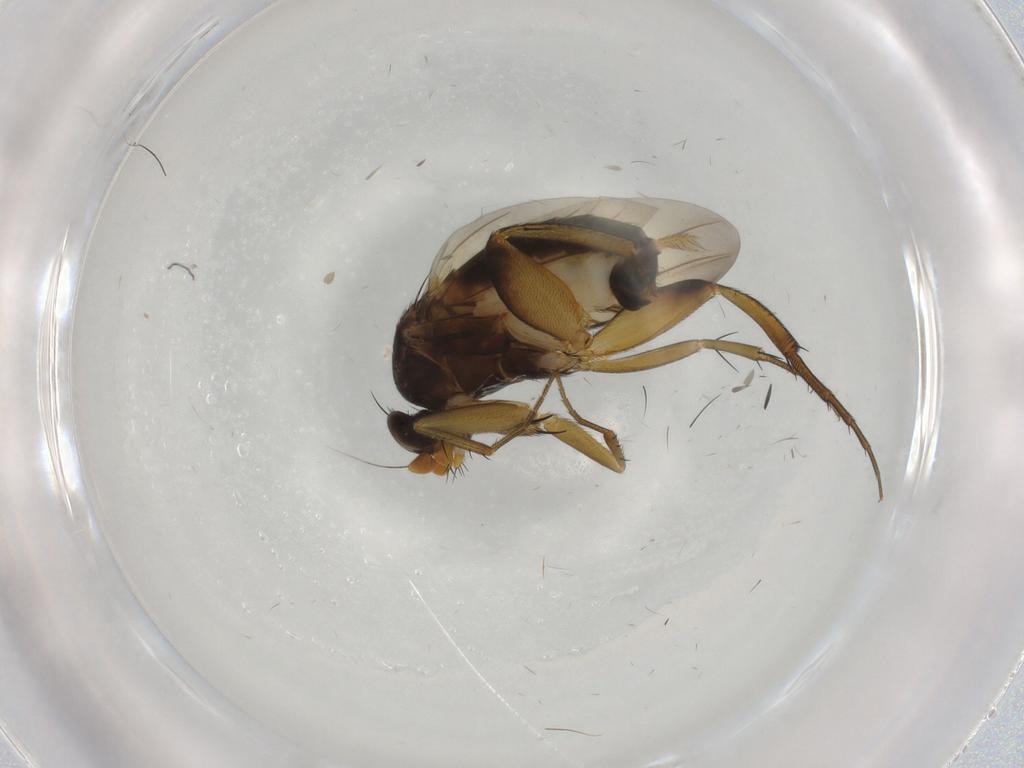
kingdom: Animalia
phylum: Arthropoda
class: Insecta
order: Diptera
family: Phoridae
